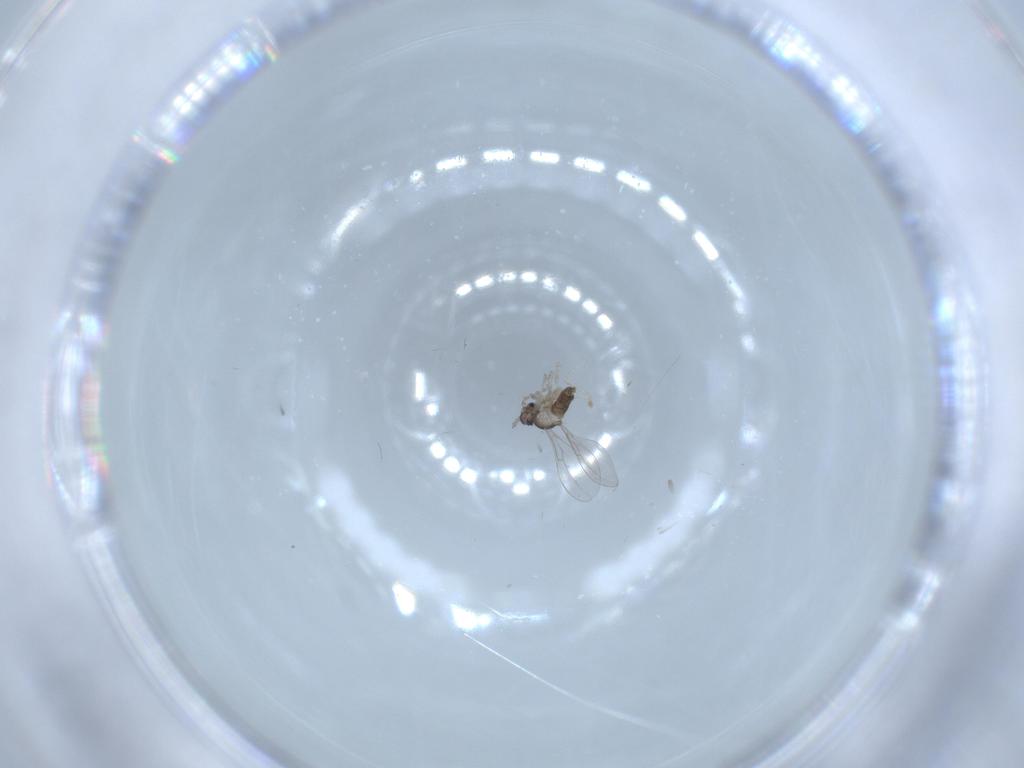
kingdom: Animalia
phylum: Arthropoda
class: Insecta
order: Diptera
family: Cecidomyiidae
